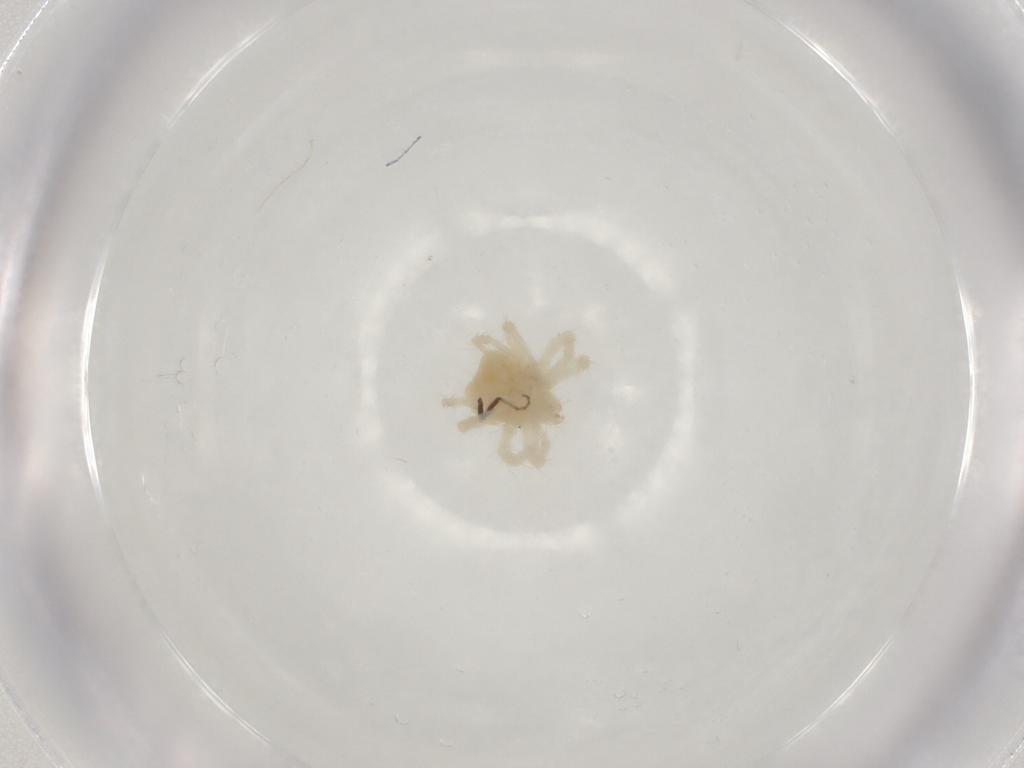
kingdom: Animalia
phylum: Arthropoda
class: Arachnida
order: Trombidiformes
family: Anystidae
